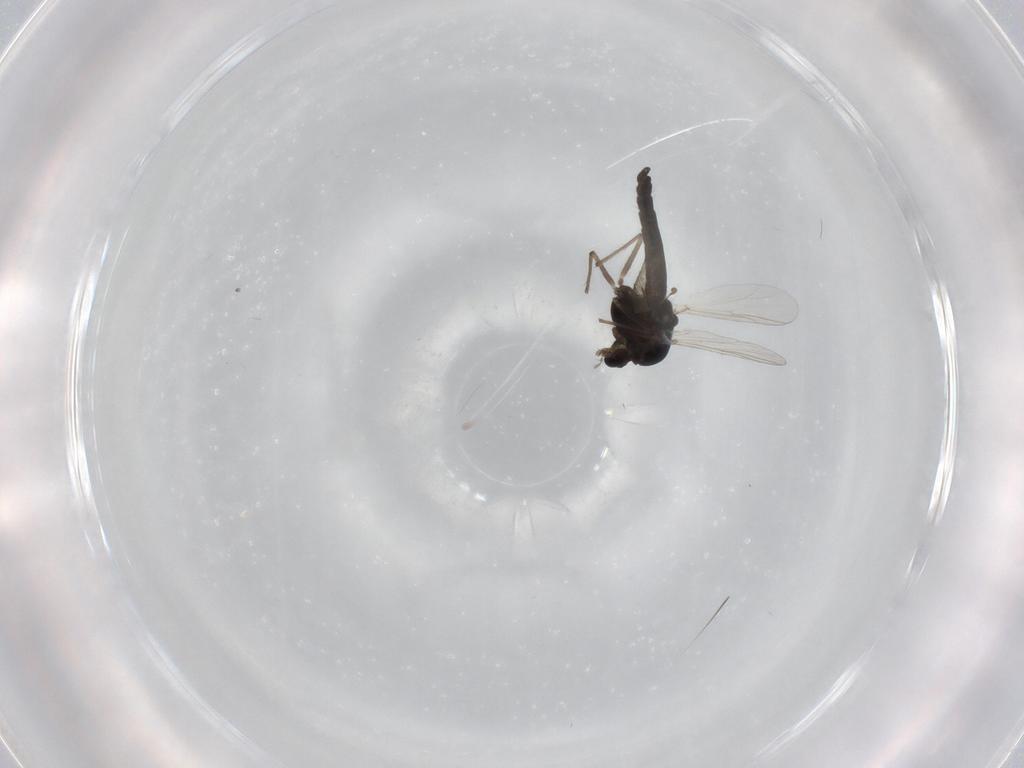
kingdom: Animalia
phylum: Arthropoda
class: Insecta
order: Diptera
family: Chironomidae
